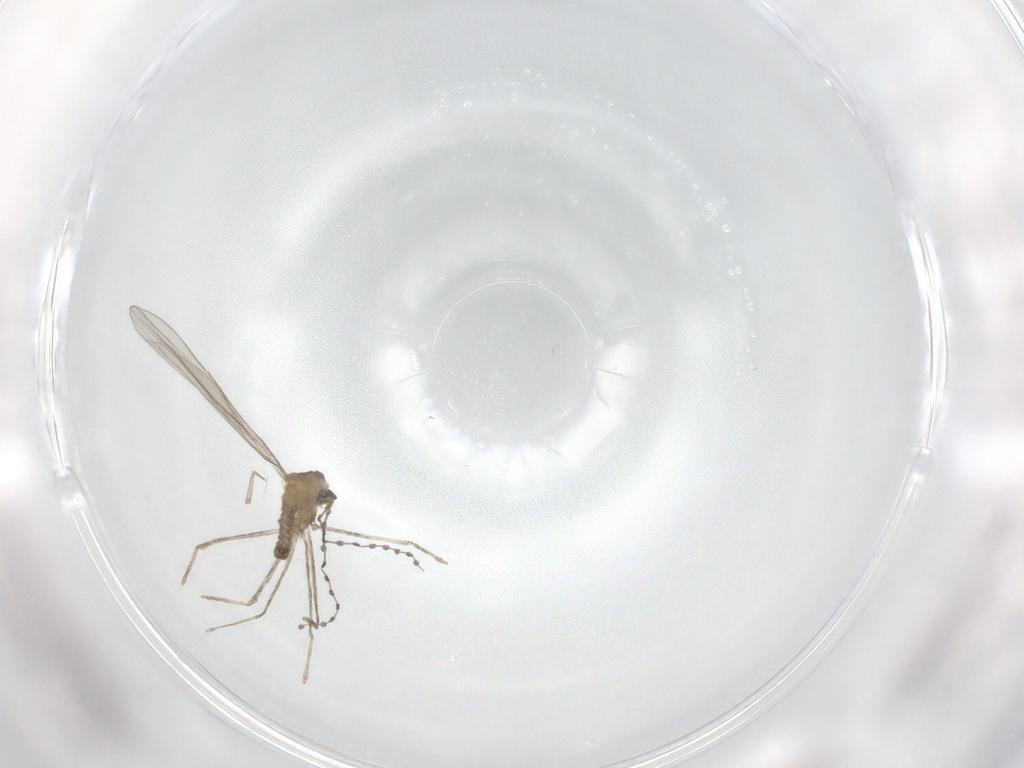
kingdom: Animalia
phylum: Arthropoda
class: Insecta
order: Diptera
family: Cecidomyiidae
